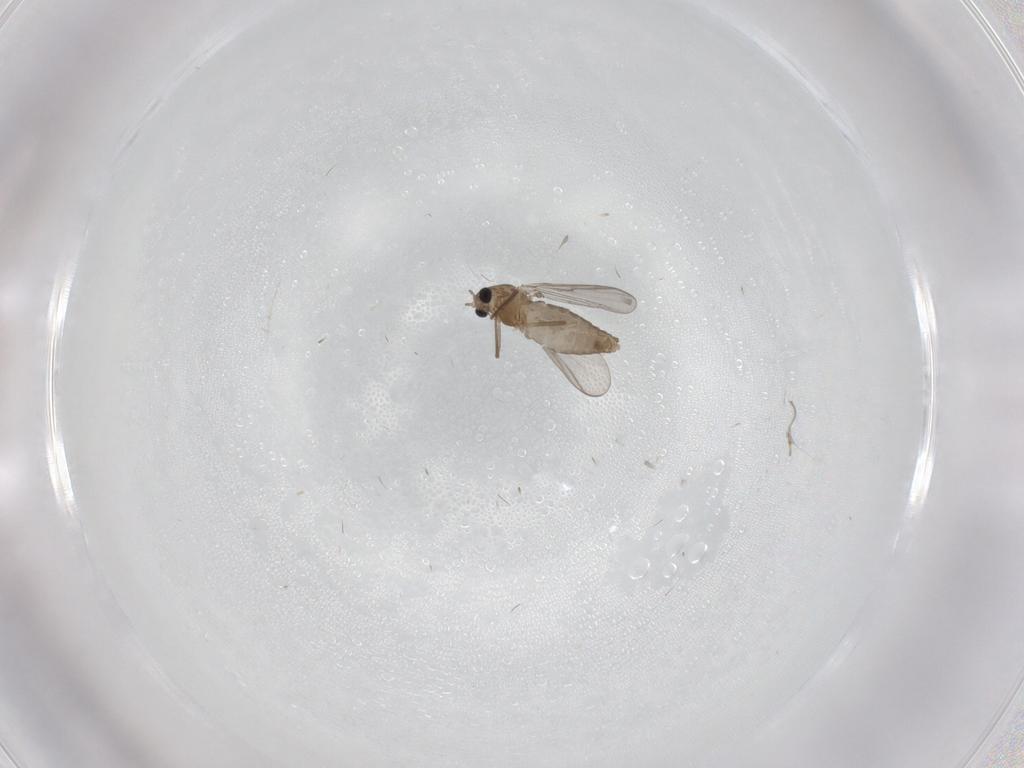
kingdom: Animalia
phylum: Arthropoda
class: Insecta
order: Diptera
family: Chironomidae
